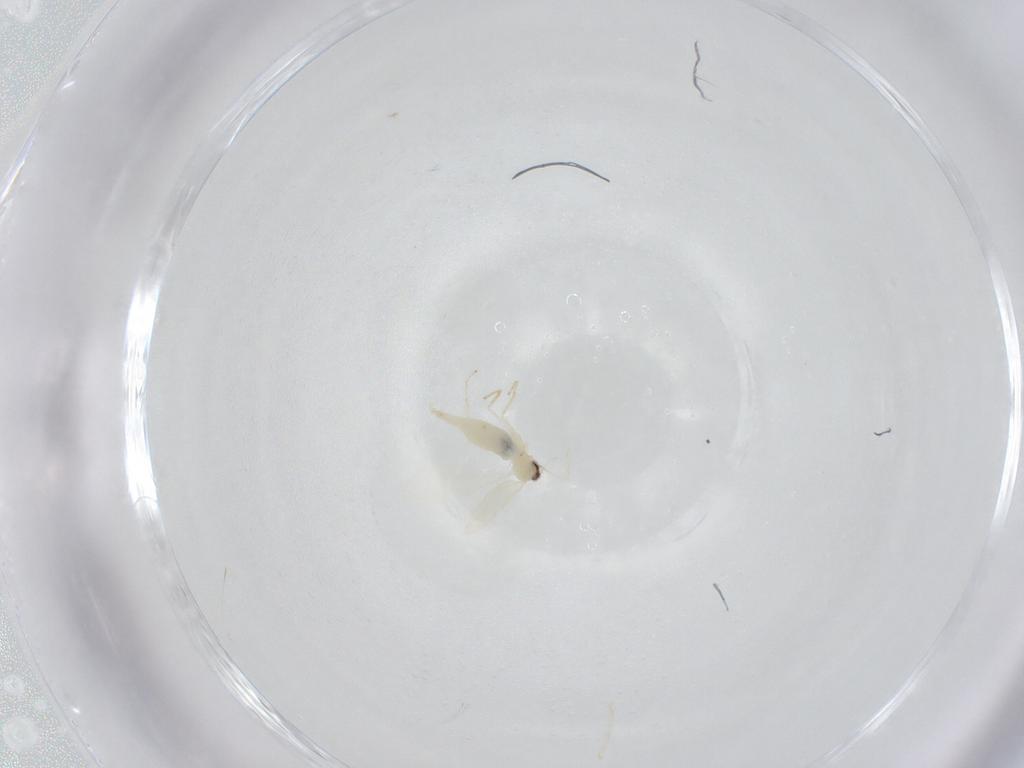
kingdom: Animalia
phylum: Arthropoda
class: Insecta
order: Diptera
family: Cecidomyiidae
